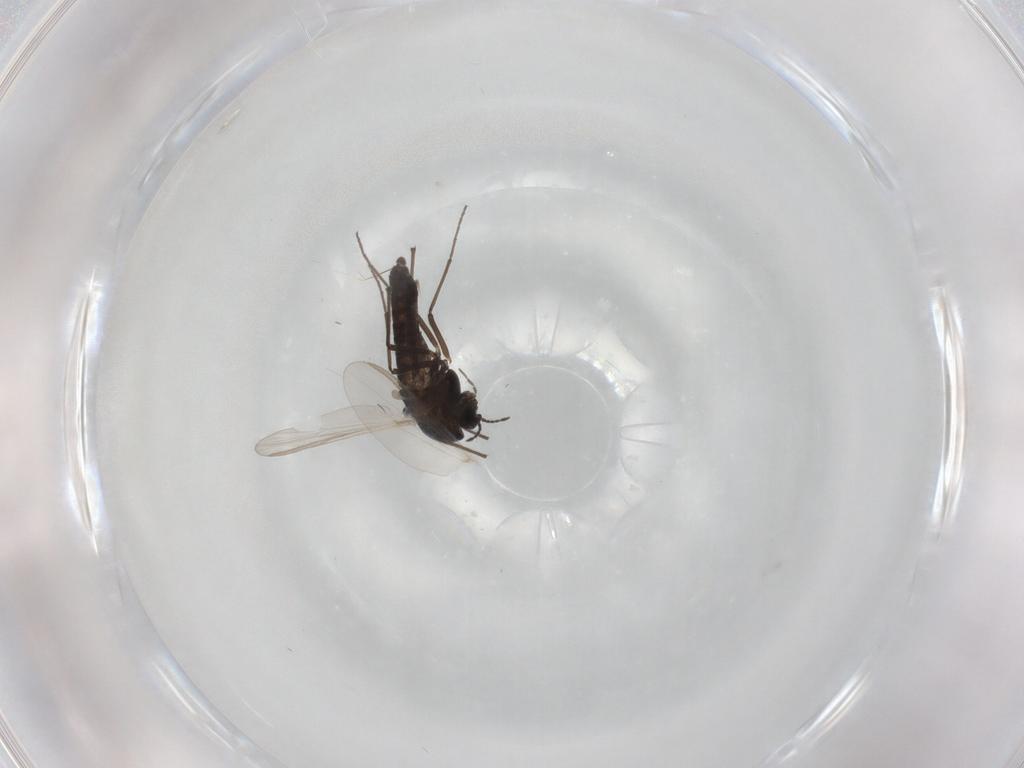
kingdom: Animalia
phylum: Arthropoda
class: Insecta
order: Diptera
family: Chironomidae
